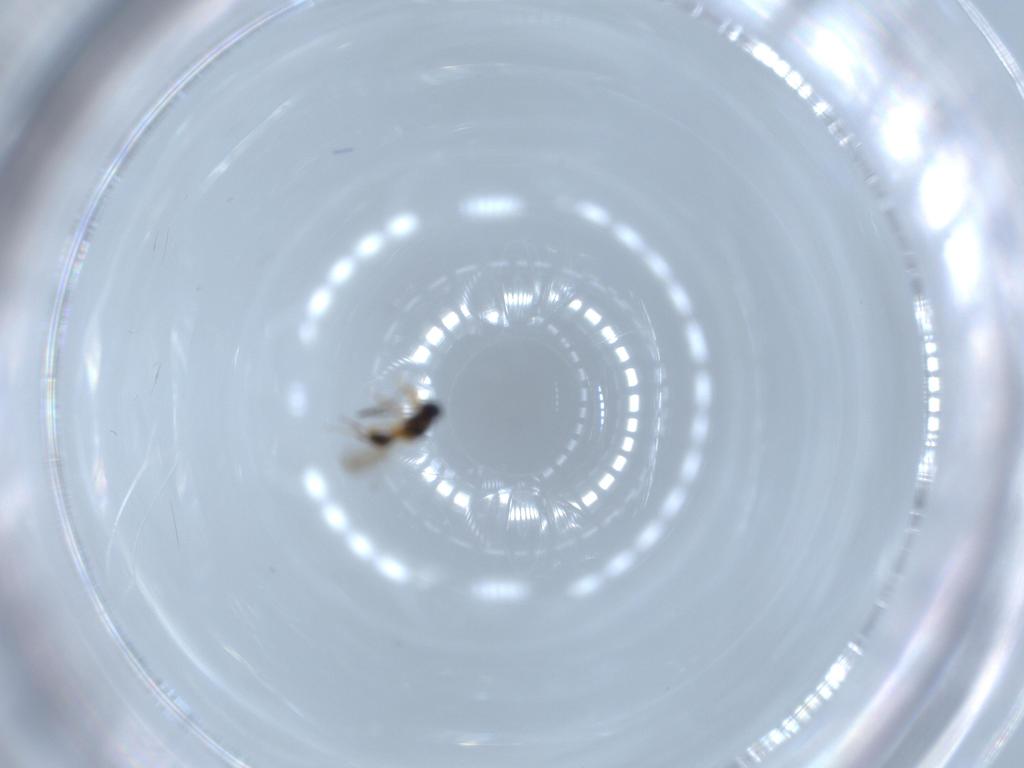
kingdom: Animalia
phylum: Arthropoda
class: Insecta
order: Hymenoptera
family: Platygastridae
